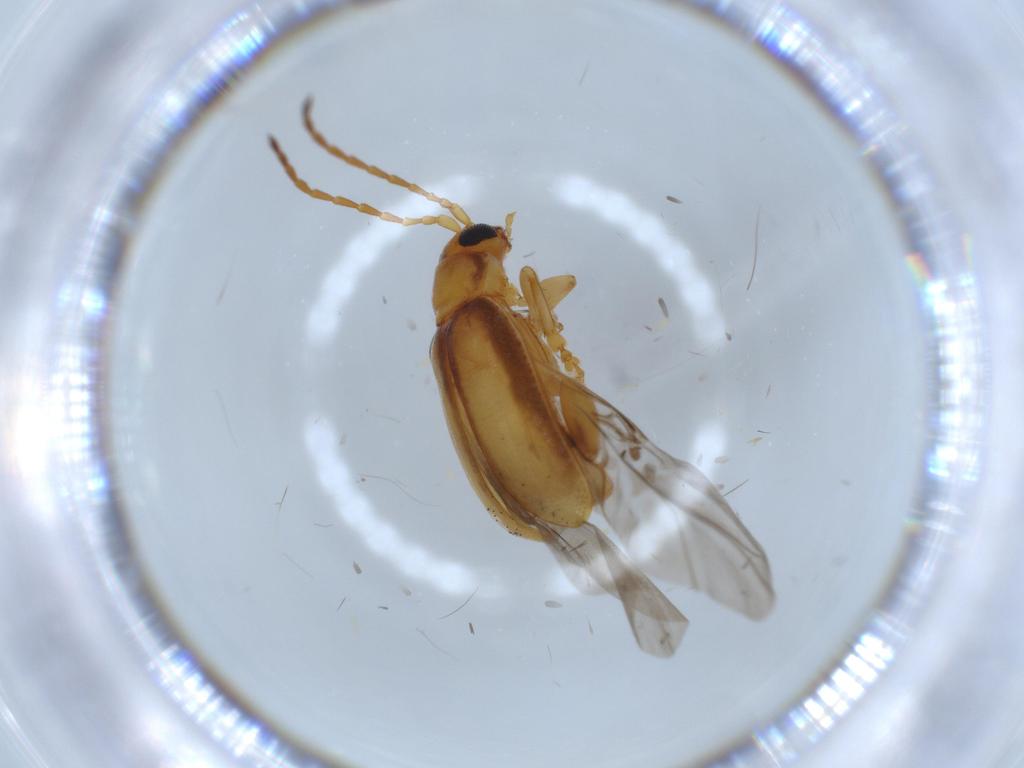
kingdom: Animalia
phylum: Arthropoda
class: Insecta
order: Coleoptera
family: Chrysomelidae
